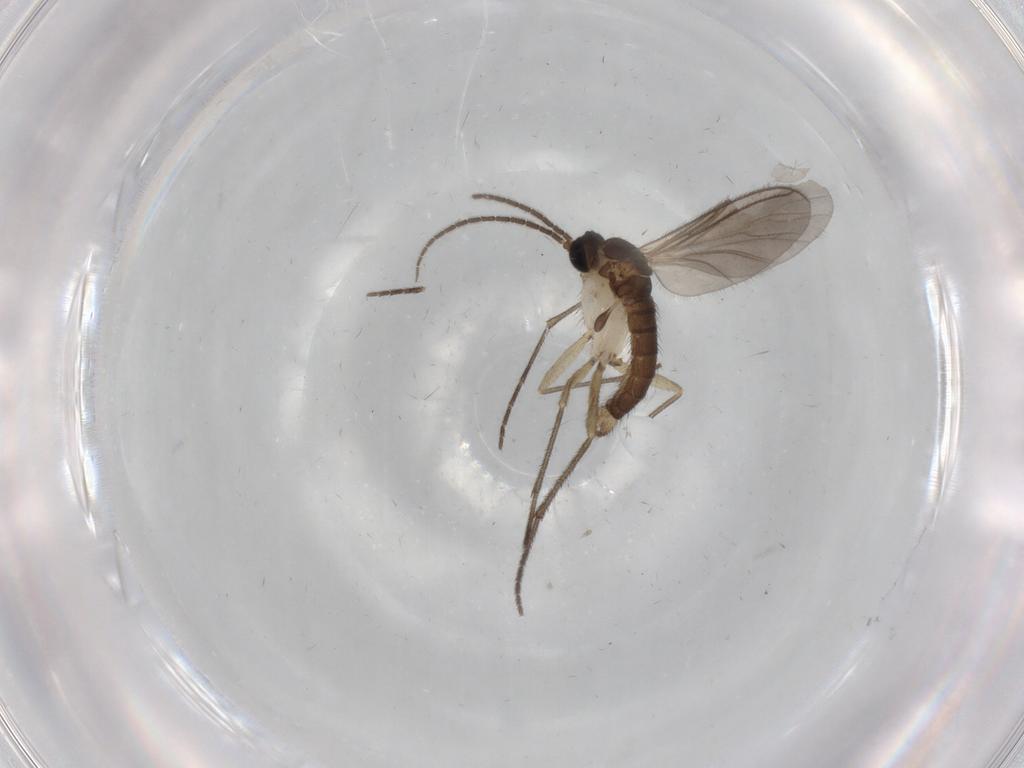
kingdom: Animalia
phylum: Arthropoda
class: Insecta
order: Diptera
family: Sciaridae
